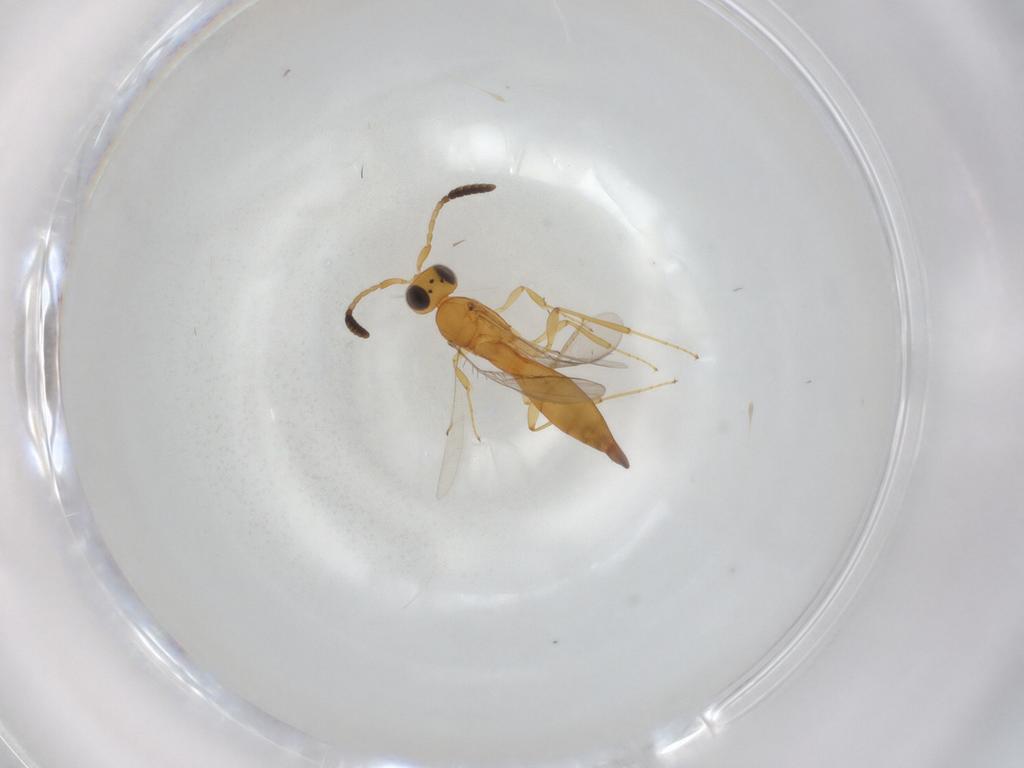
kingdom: Animalia
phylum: Arthropoda
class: Insecta
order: Hymenoptera
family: Scelionidae
